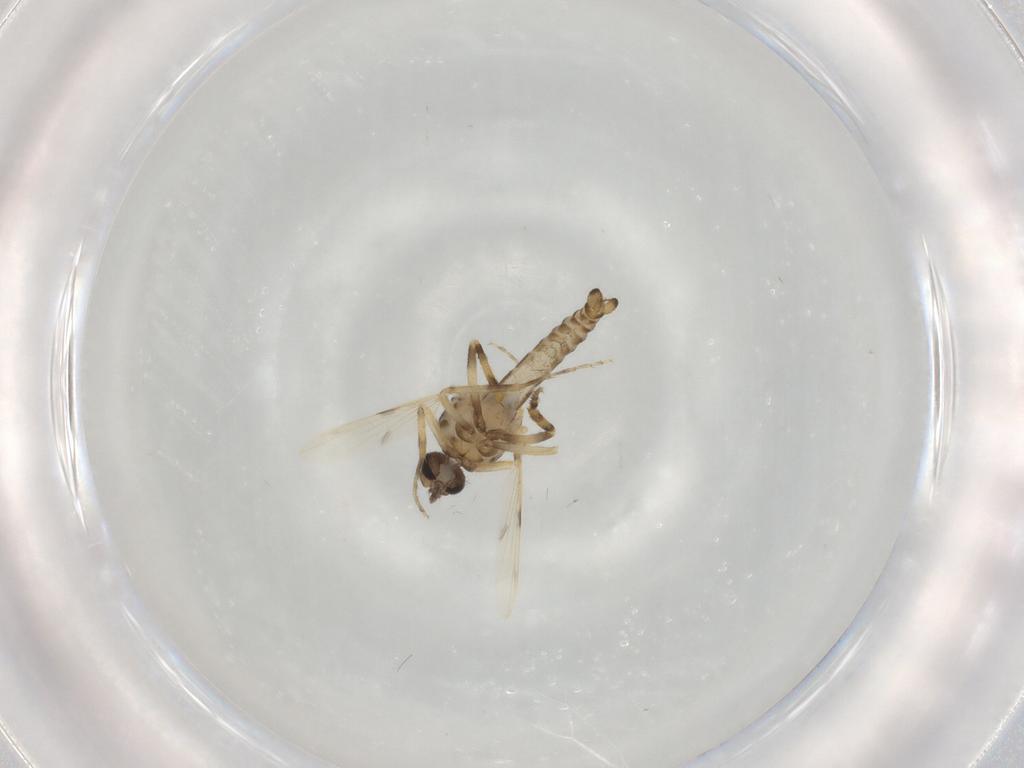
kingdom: Animalia
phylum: Arthropoda
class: Insecta
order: Diptera
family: Ceratopogonidae
